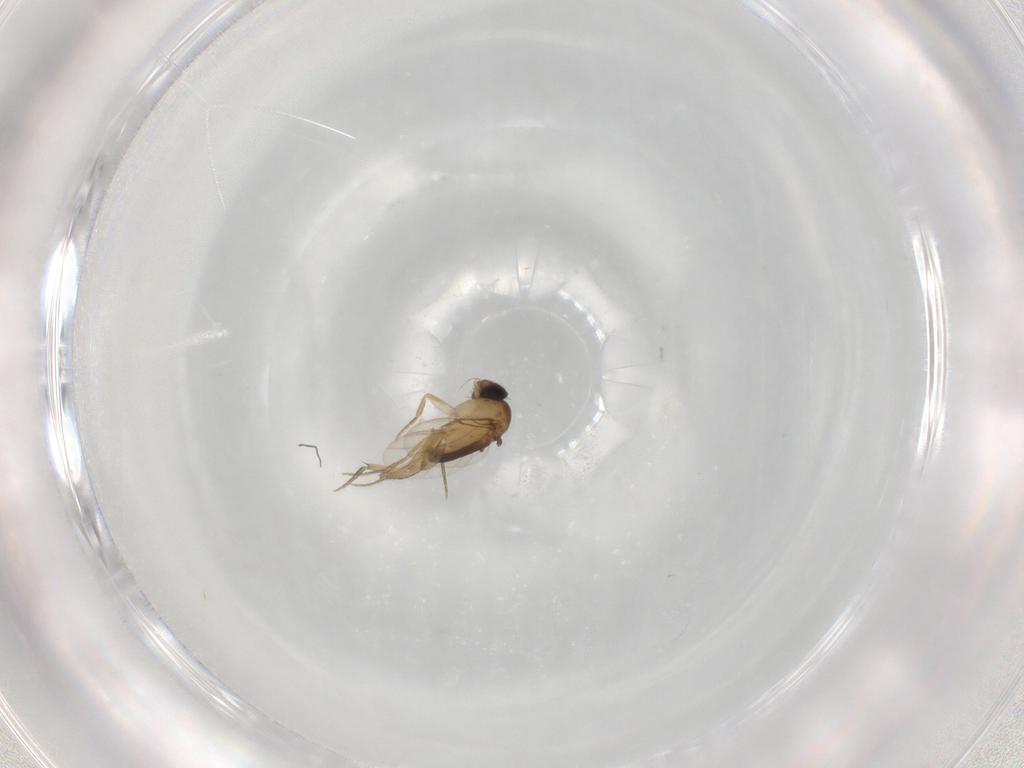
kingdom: Animalia
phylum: Arthropoda
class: Insecta
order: Diptera
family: Phoridae
